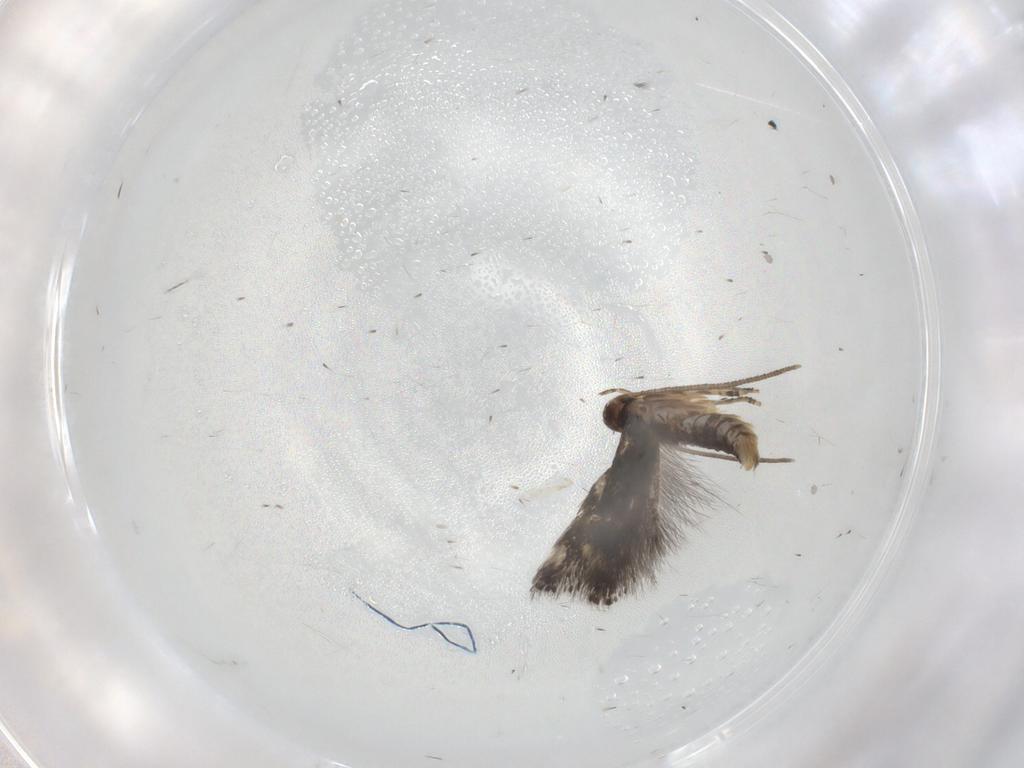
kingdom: Animalia
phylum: Arthropoda
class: Insecta
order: Lepidoptera
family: Elachistidae
